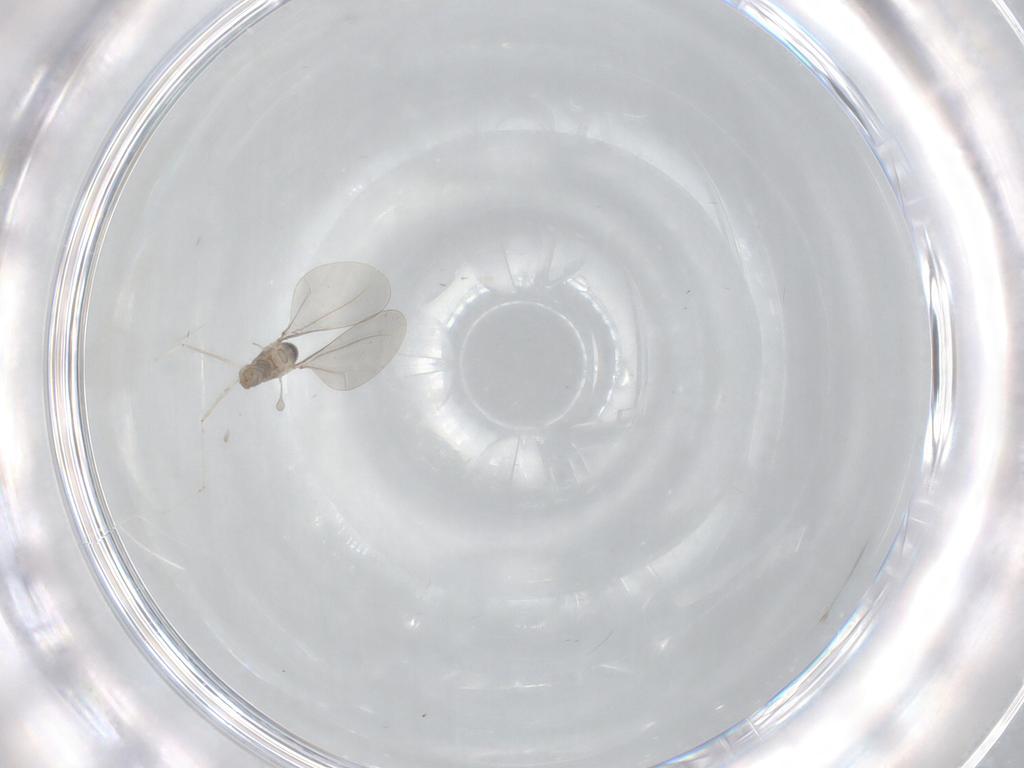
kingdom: Animalia
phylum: Arthropoda
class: Insecta
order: Diptera
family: Cecidomyiidae
